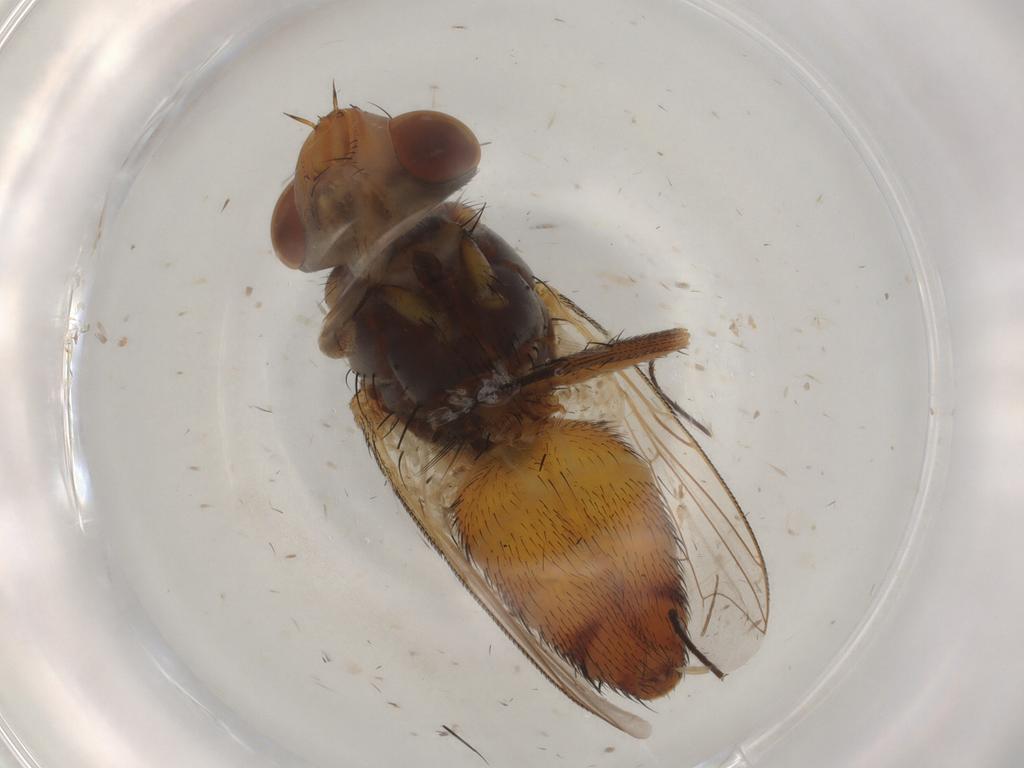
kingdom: Animalia
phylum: Arthropoda
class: Insecta
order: Diptera
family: Sarcophagidae
